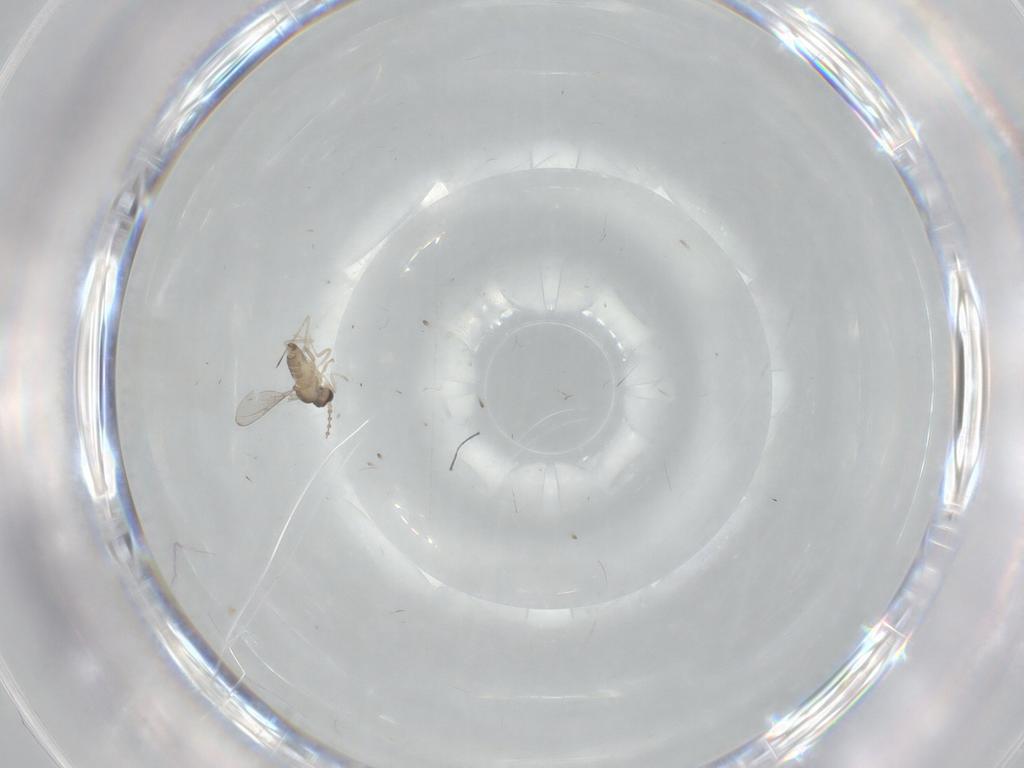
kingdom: Animalia
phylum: Arthropoda
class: Insecta
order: Diptera
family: Cecidomyiidae
